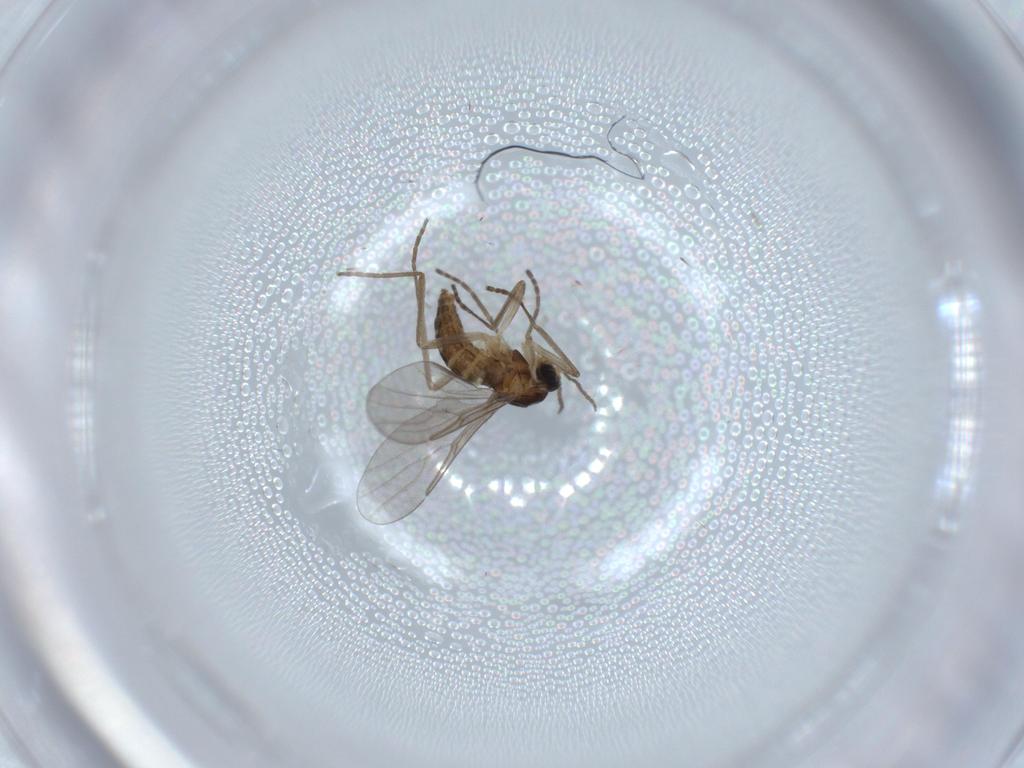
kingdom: Animalia
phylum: Arthropoda
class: Insecta
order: Diptera
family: Cecidomyiidae
